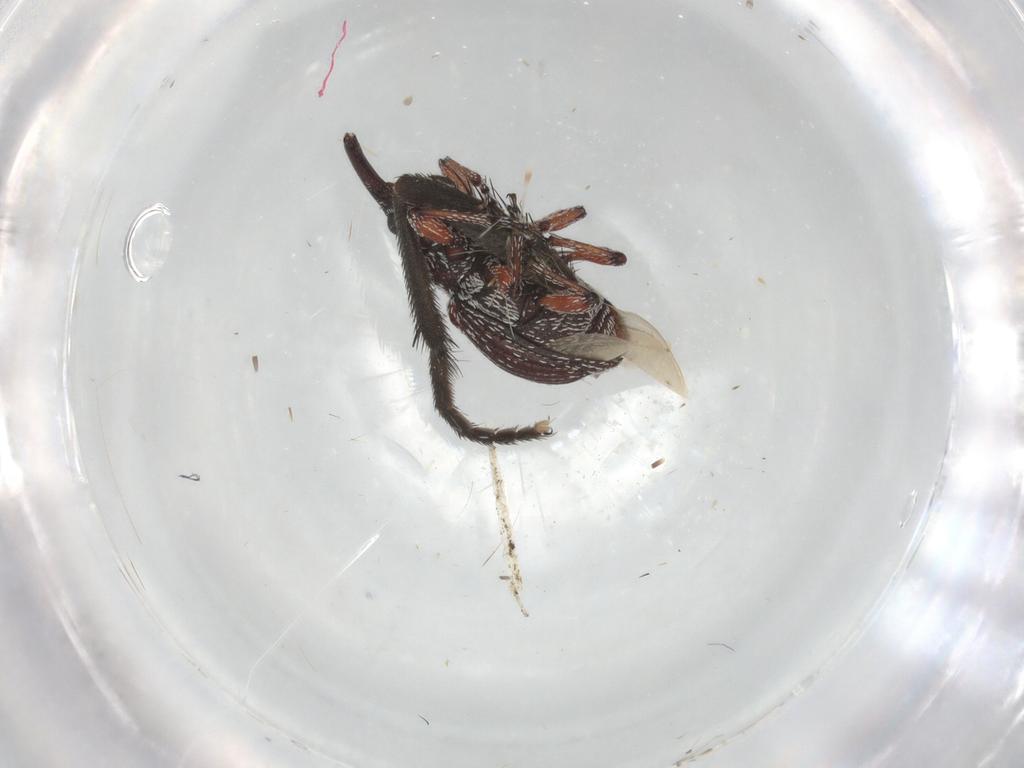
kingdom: Animalia
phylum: Arthropoda
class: Insecta
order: Coleoptera
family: Brentidae
